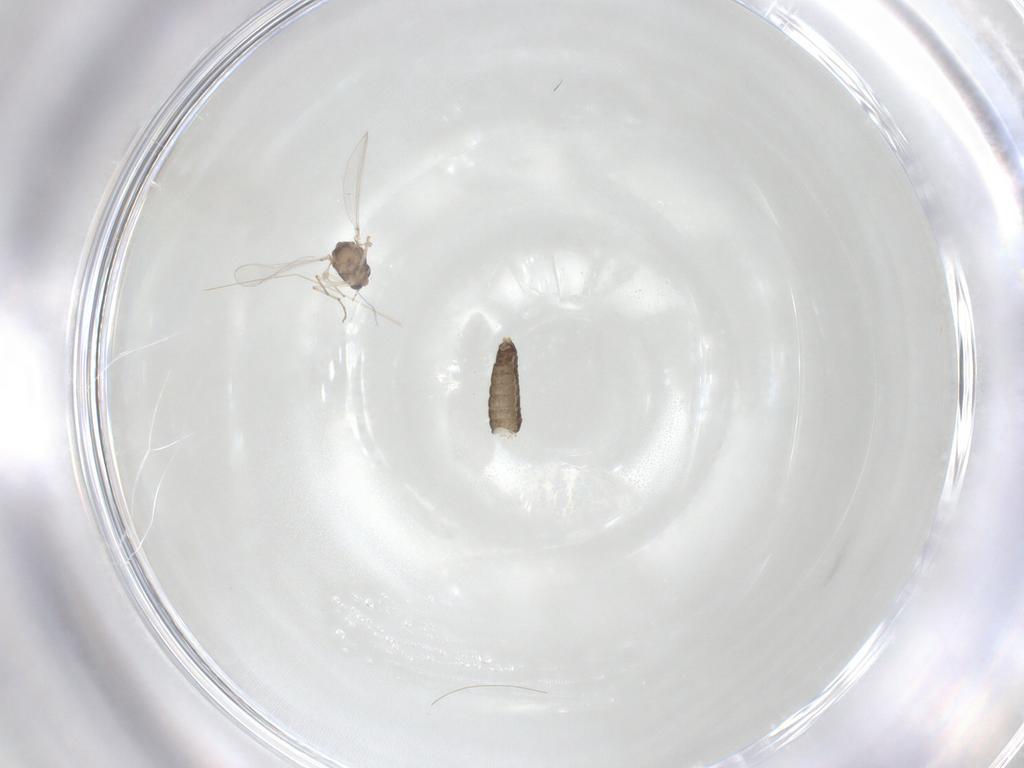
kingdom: Animalia
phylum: Arthropoda
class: Insecta
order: Diptera
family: Chironomidae
